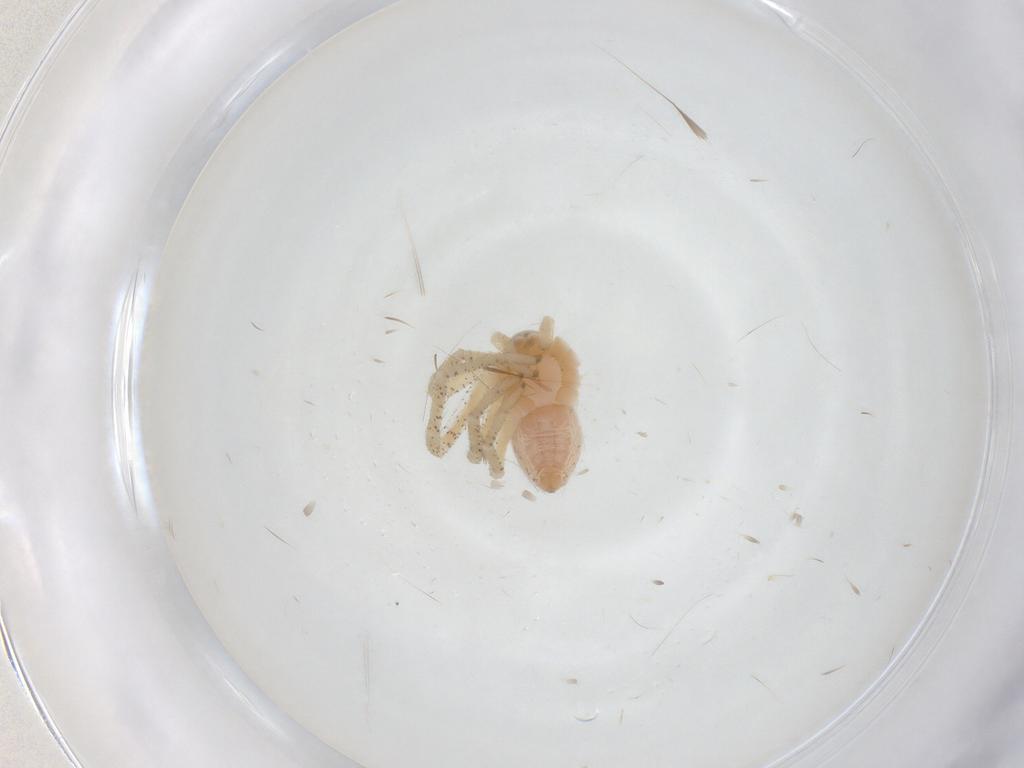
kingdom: Animalia
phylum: Arthropoda
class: Arachnida
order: Araneae
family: Philodromidae
